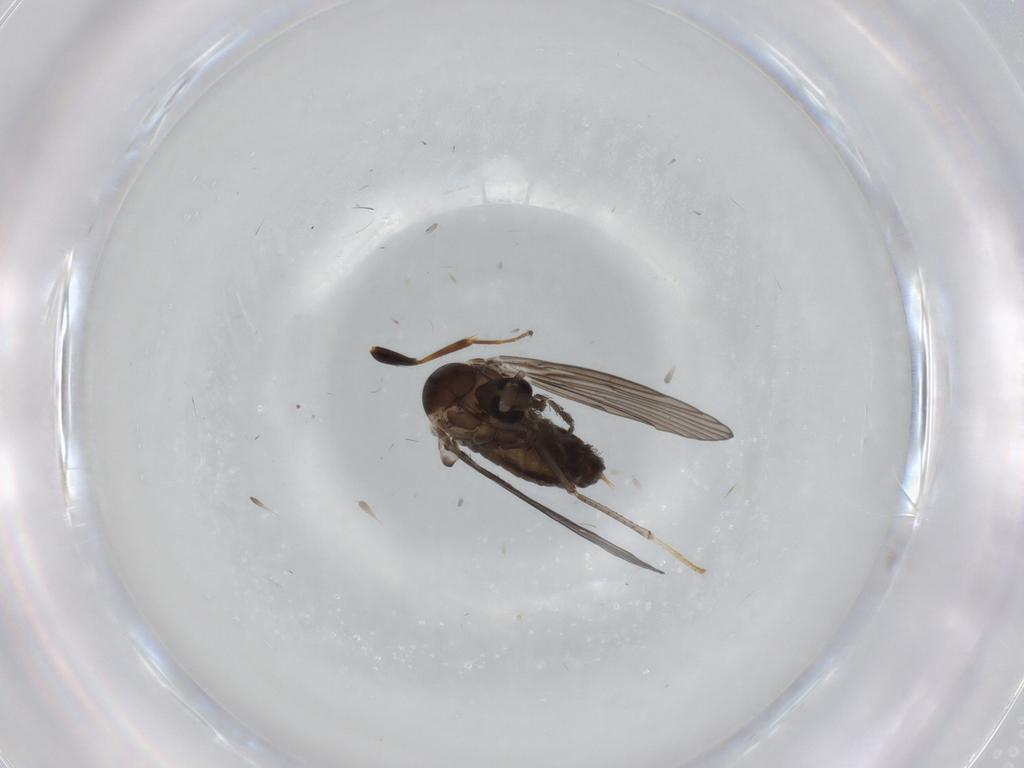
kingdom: Animalia
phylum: Arthropoda
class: Insecta
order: Diptera
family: Psychodidae
